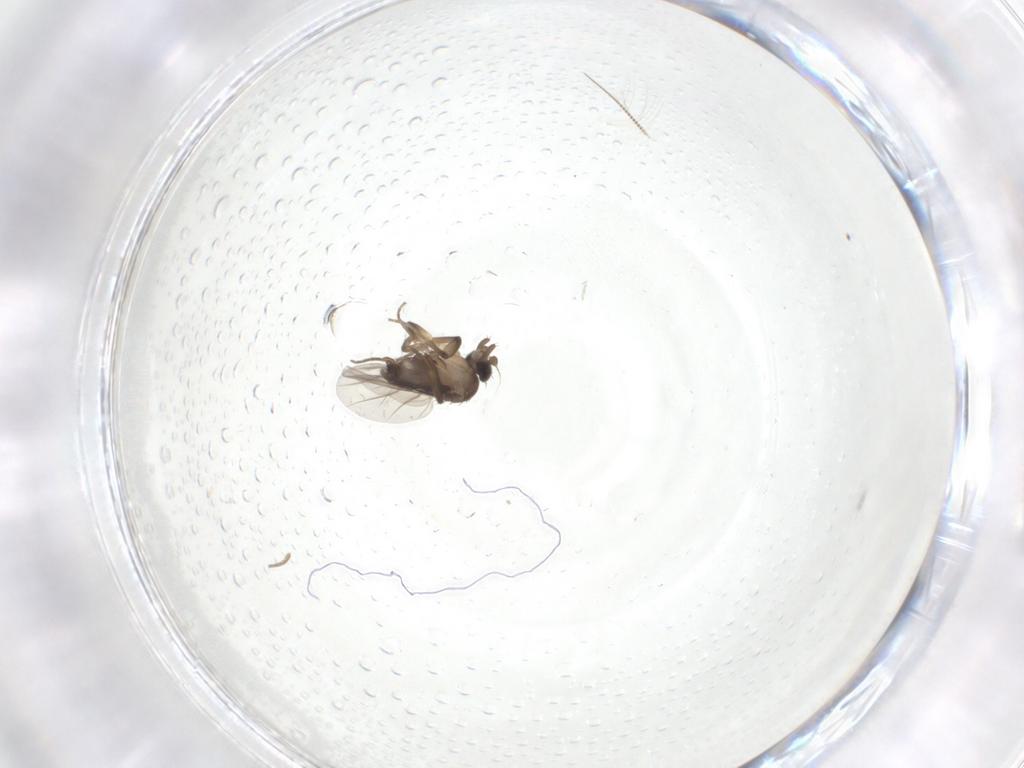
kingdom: Animalia
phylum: Arthropoda
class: Insecta
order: Diptera
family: Phoridae
